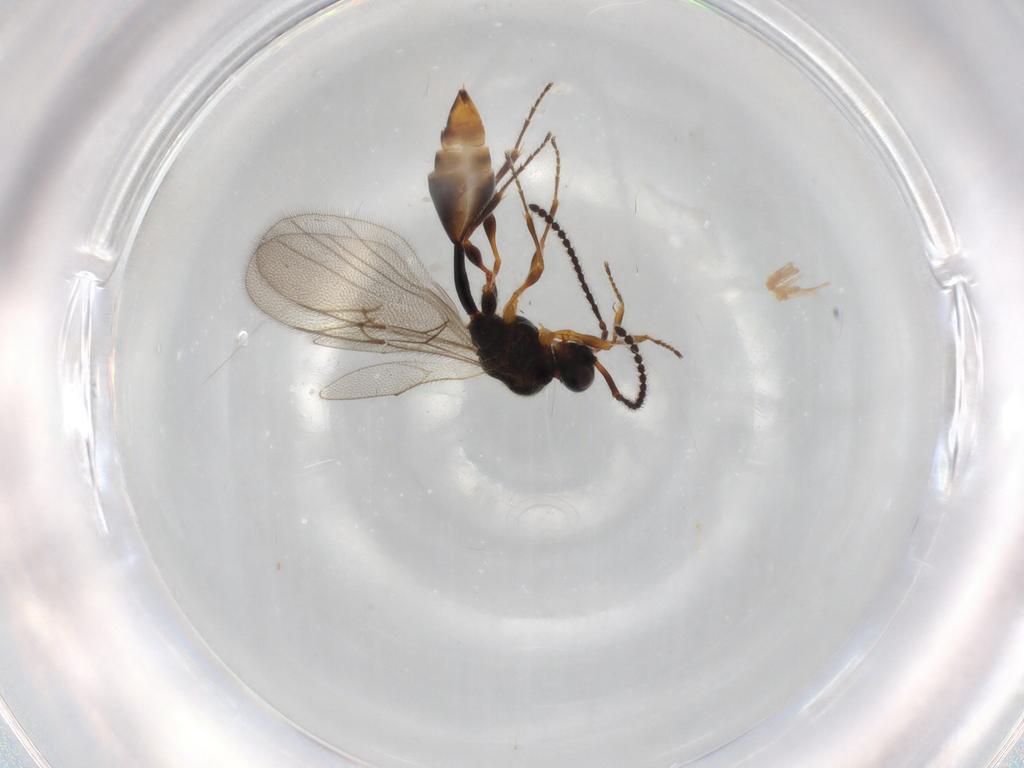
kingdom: Animalia
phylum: Arthropoda
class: Insecta
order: Hymenoptera
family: Diapriidae
